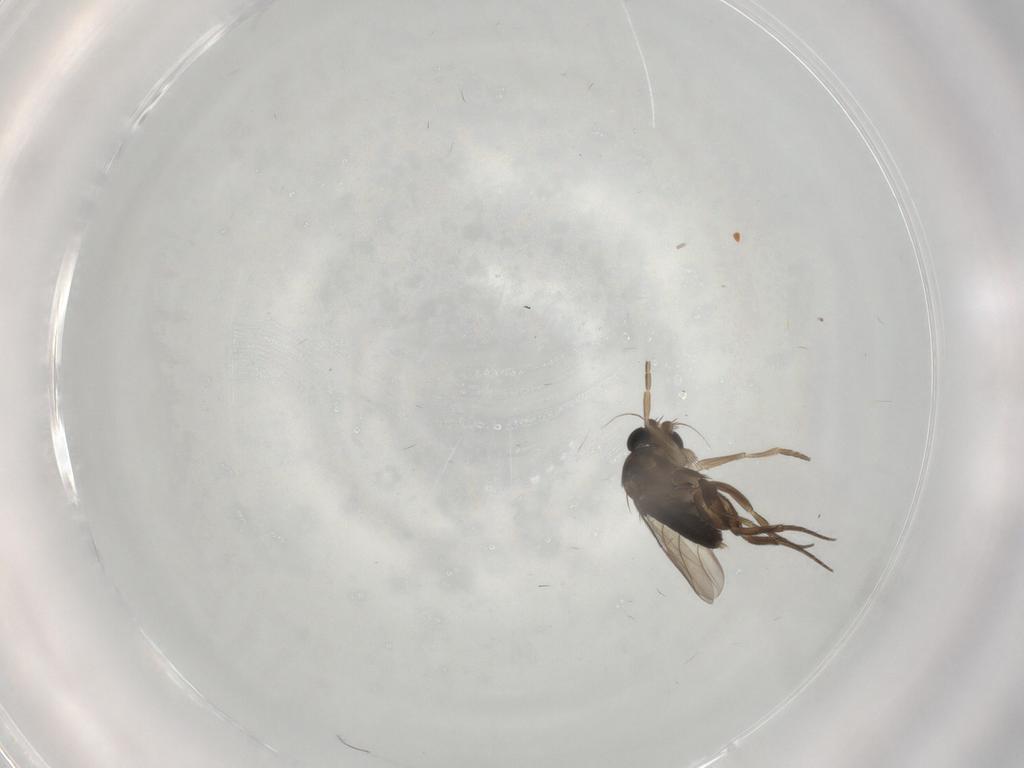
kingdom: Animalia
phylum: Arthropoda
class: Insecta
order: Diptera
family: Phoridae
